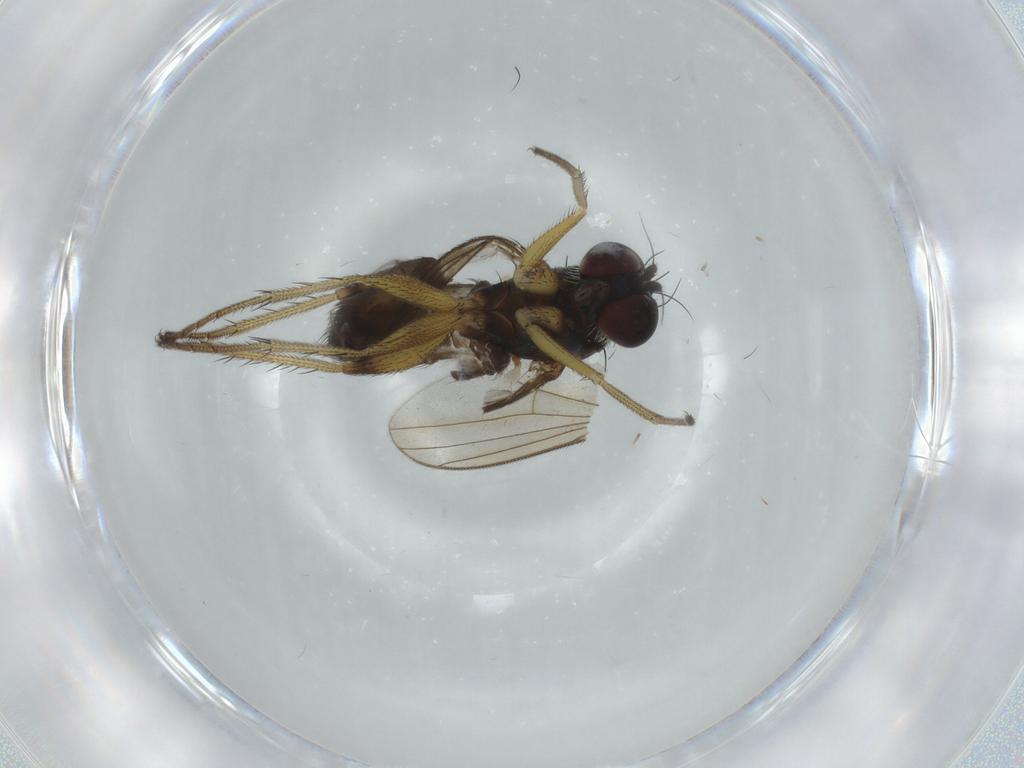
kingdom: Animalia
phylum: Arthropoda
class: Insecta
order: Diptera
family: Dolichopodidae
